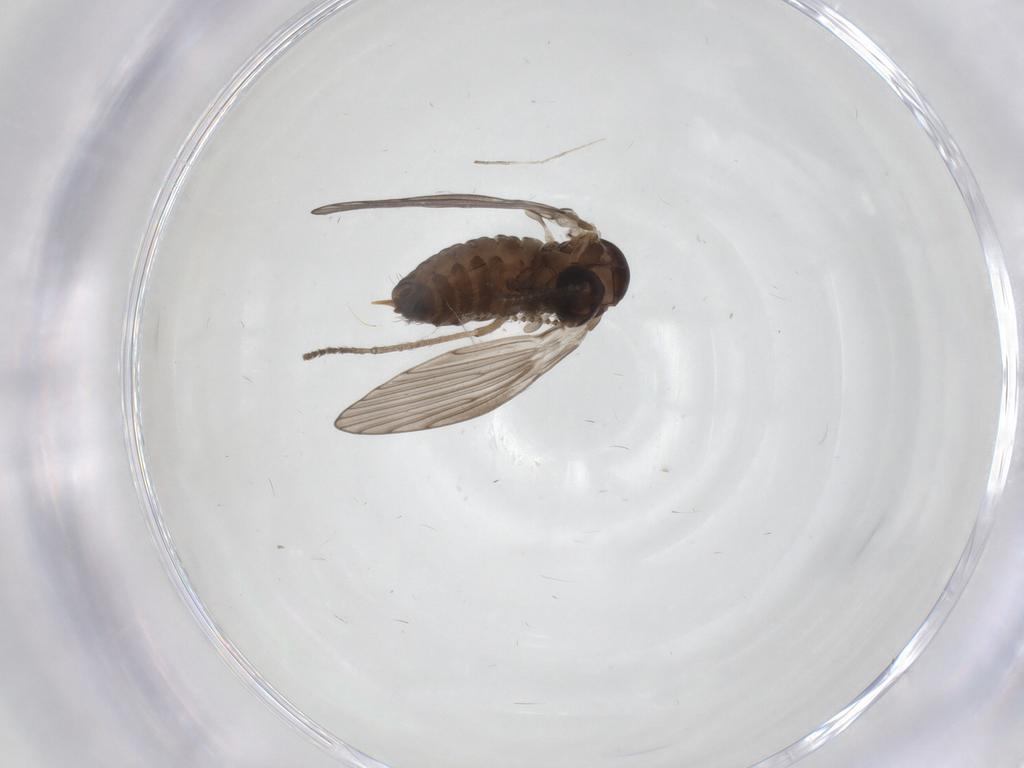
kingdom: Animalia
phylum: Arthropoda
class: Insecta
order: Diptera
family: Psychodidae
